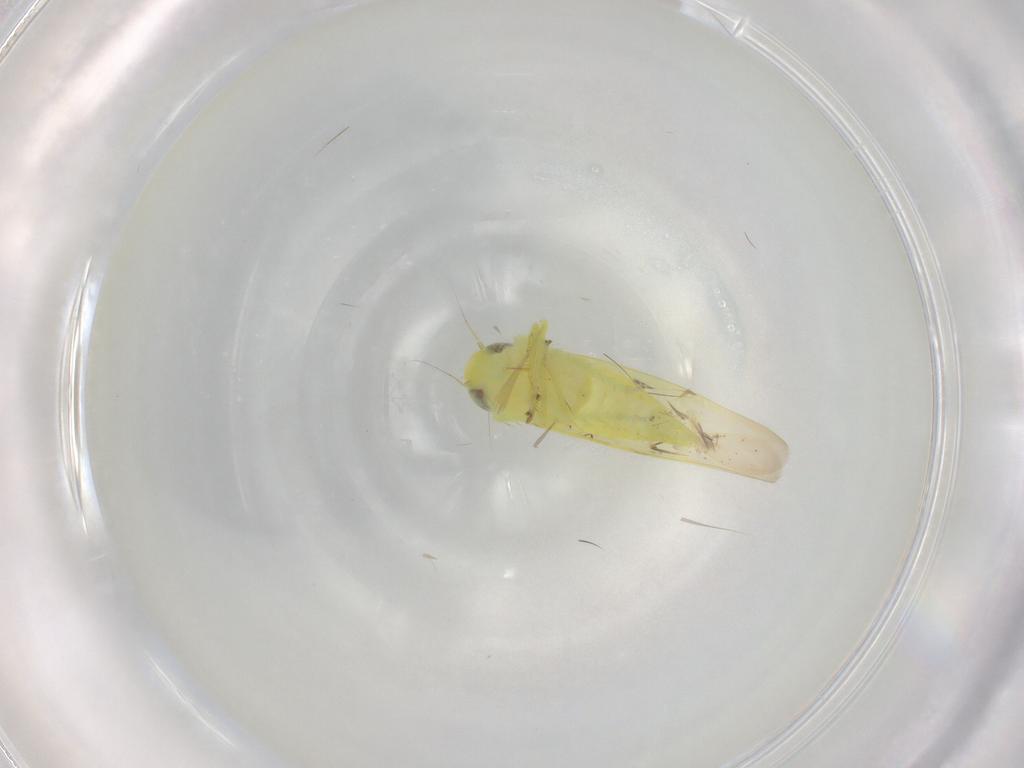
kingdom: Animalia
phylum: Arthropoda
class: Insecta
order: Hemiptera
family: Cicadellidae
